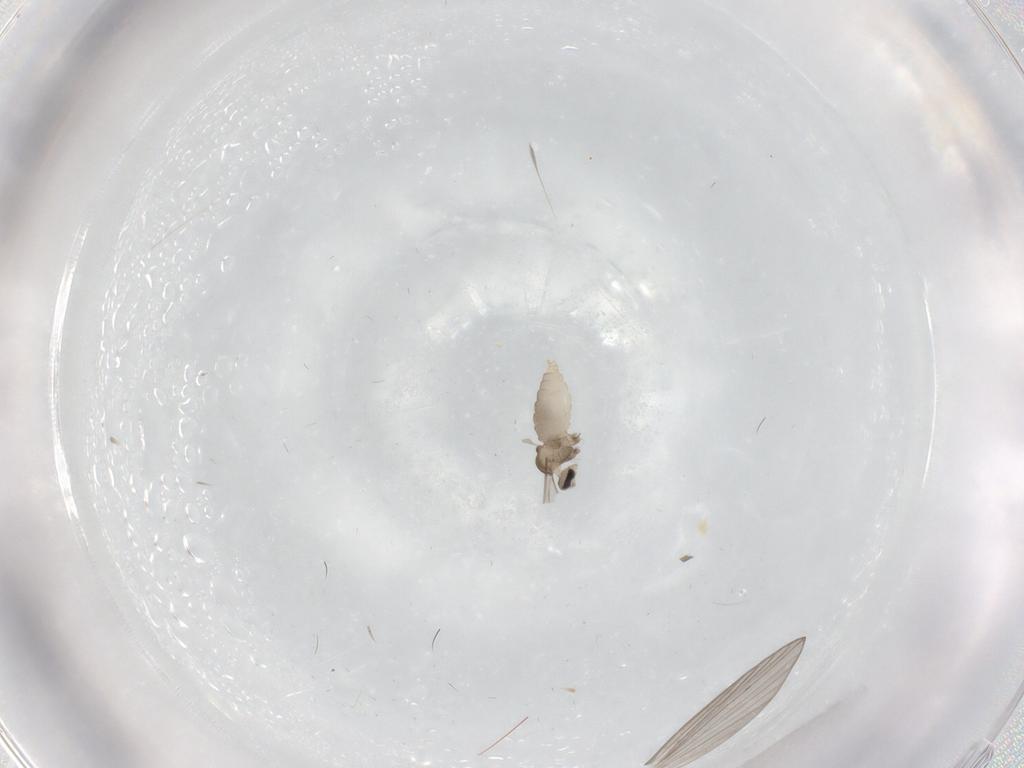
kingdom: Animalia
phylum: Arthropoda
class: Insecta
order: Diptera
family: Psychodidae
